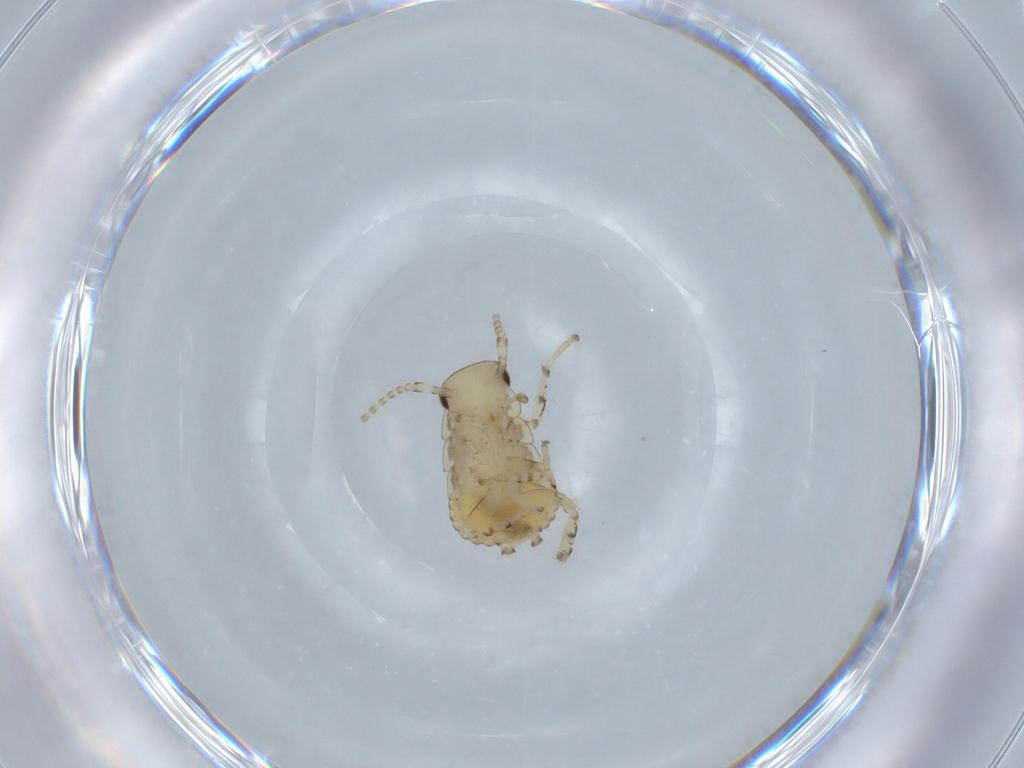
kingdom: Animalia
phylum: Arthropoda
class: Insecta
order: Blattodea
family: Ectobiidae
